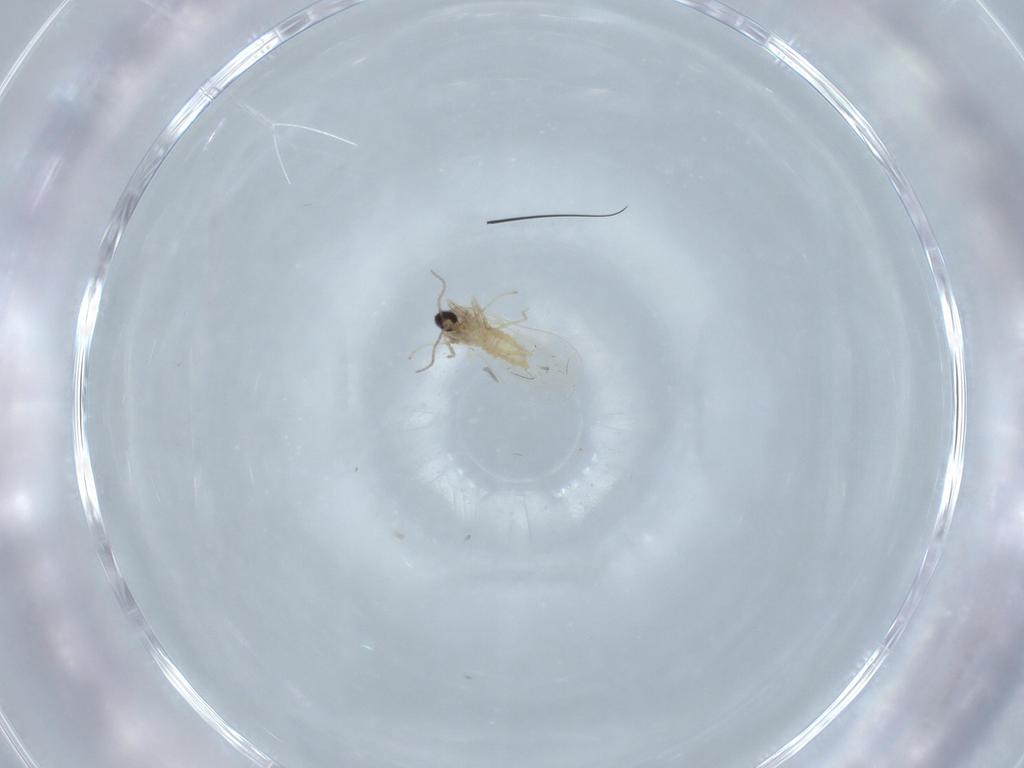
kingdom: Animalia
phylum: Arthropoda
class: Insecta
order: Diptera
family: Cecidomyiidae
